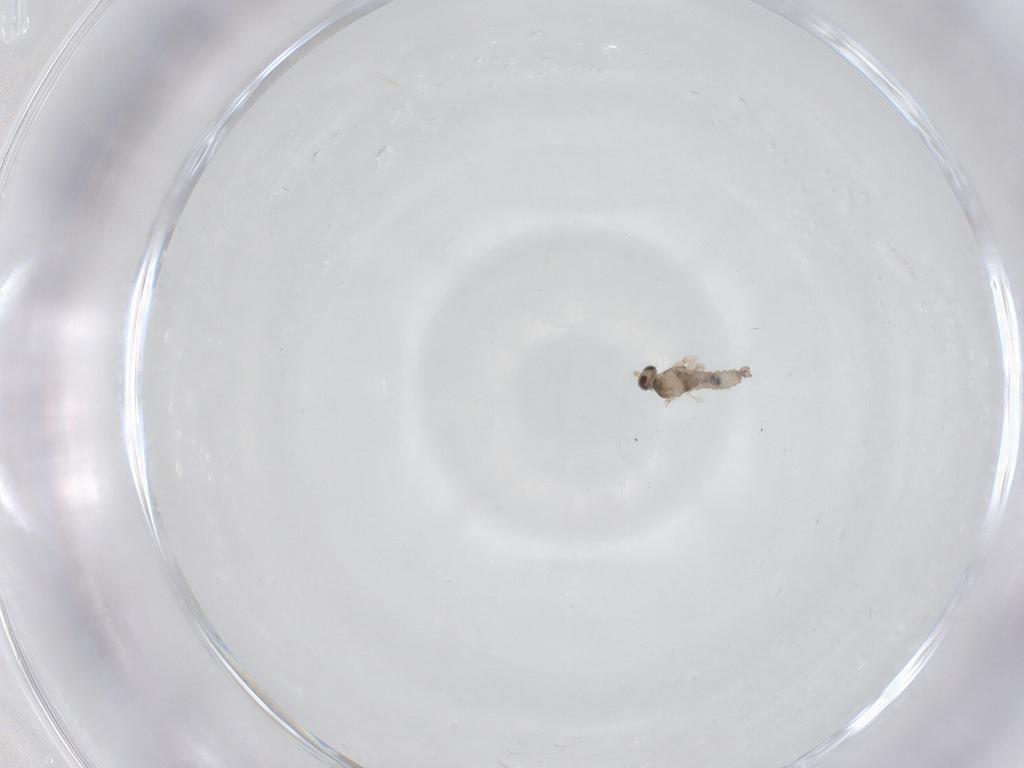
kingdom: Animalia
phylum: Arthropoda
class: Insecta
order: Diptera
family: Cecidomyiidae
